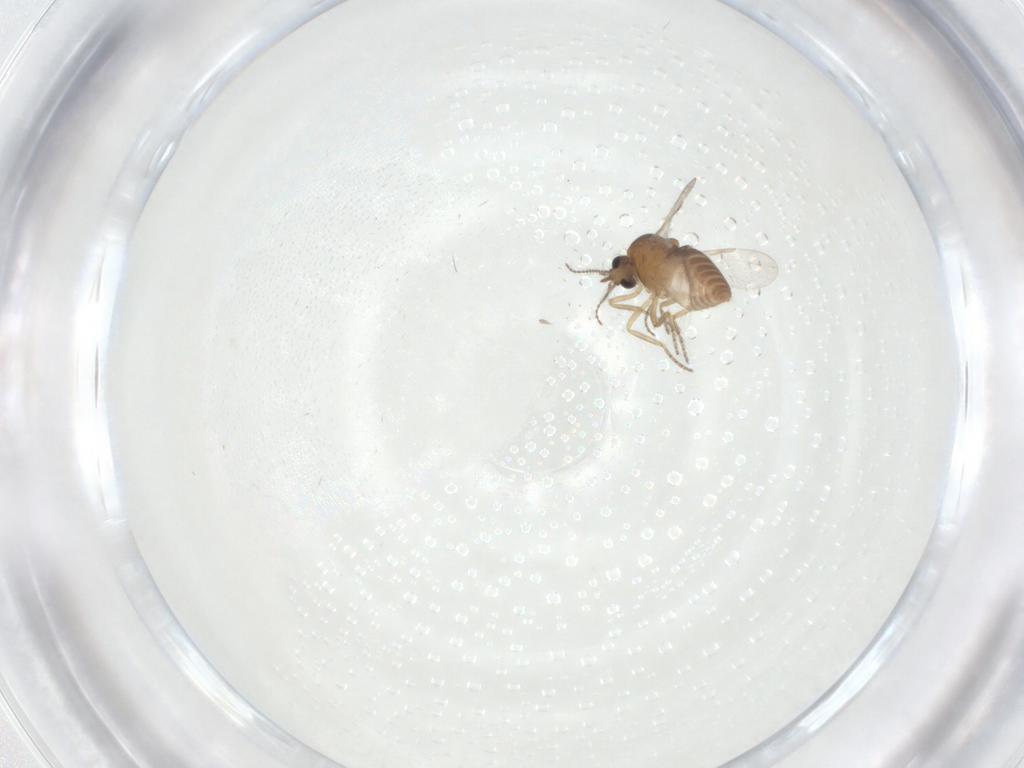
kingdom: Animalia
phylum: Arthropoda
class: Insecta
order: Diptera
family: Ceratopogonidae
